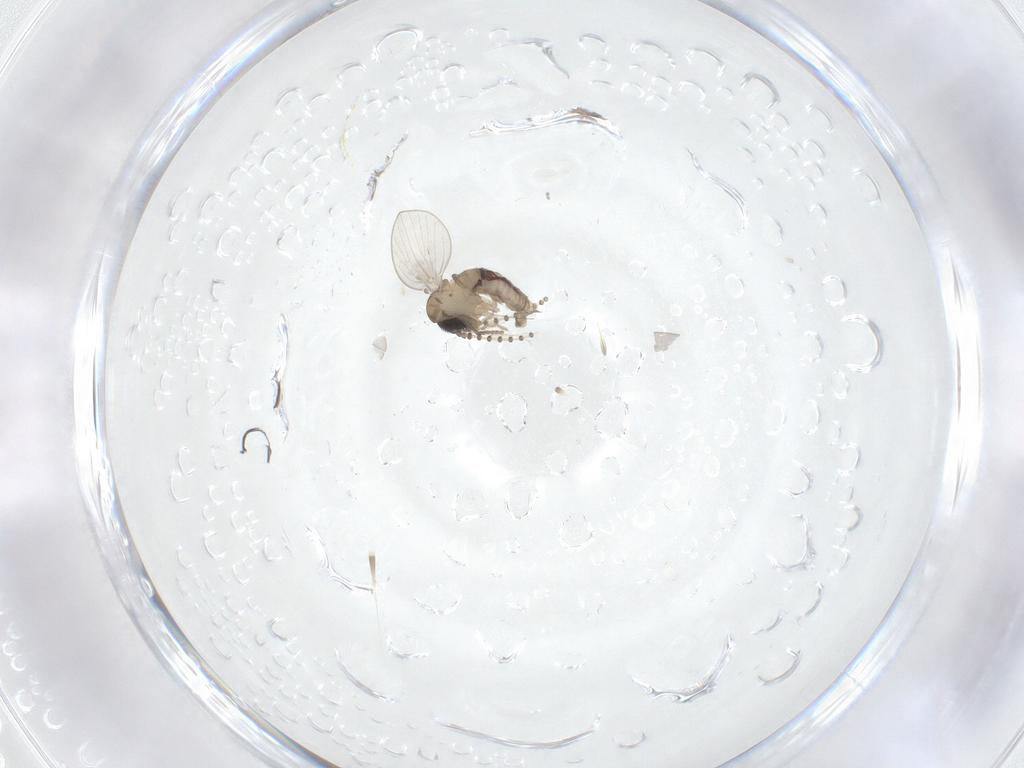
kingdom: Animalia
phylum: Arthropoda
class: Insecta
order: Diptera
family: Psychodidae
